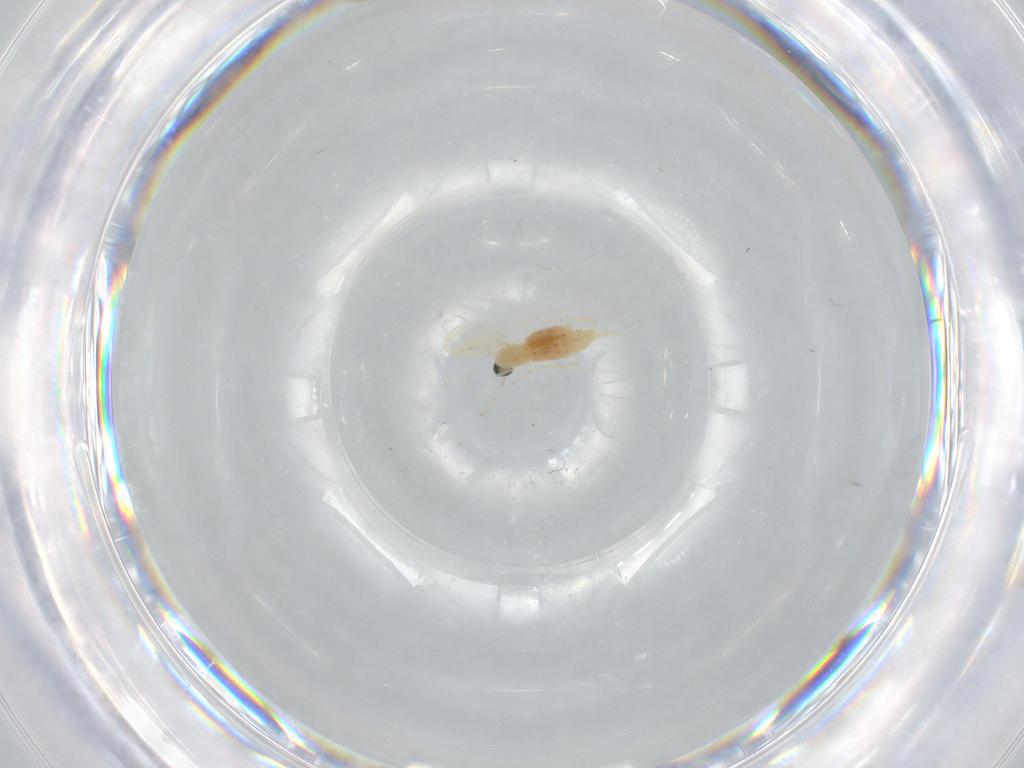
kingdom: Animalia
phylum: Arthropoda
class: Insecta
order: Diptera
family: Cecidomyiidae
